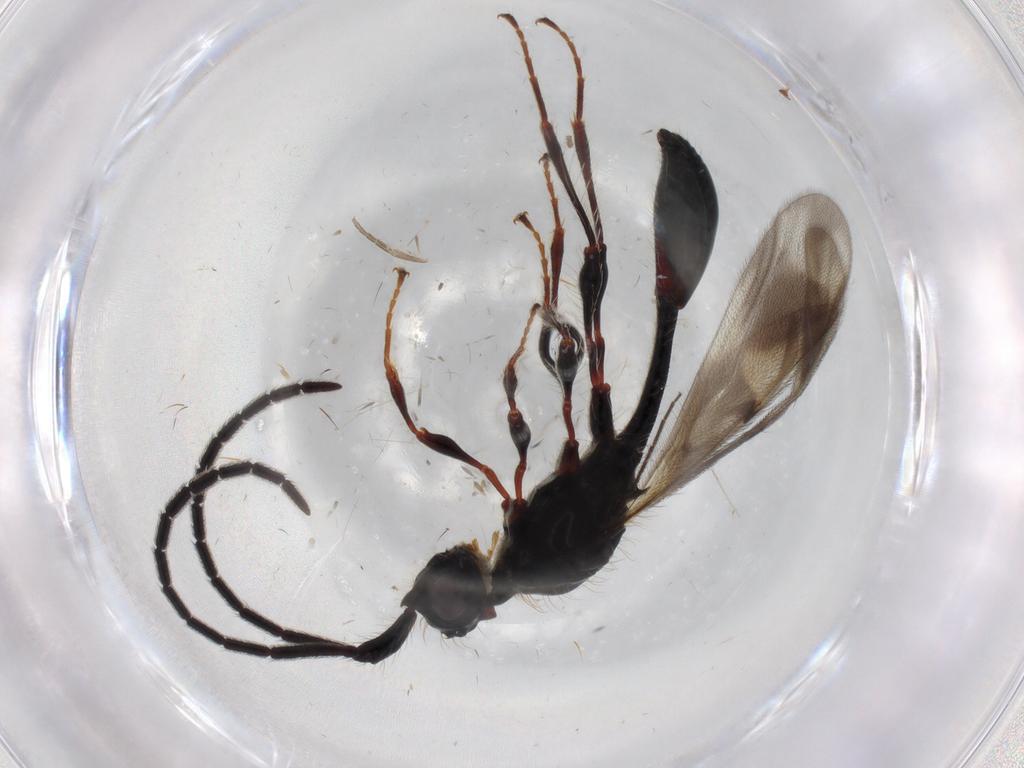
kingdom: Animalia
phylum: Arthropoda
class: Insecta
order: Hymenoptera
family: Diapriidae
